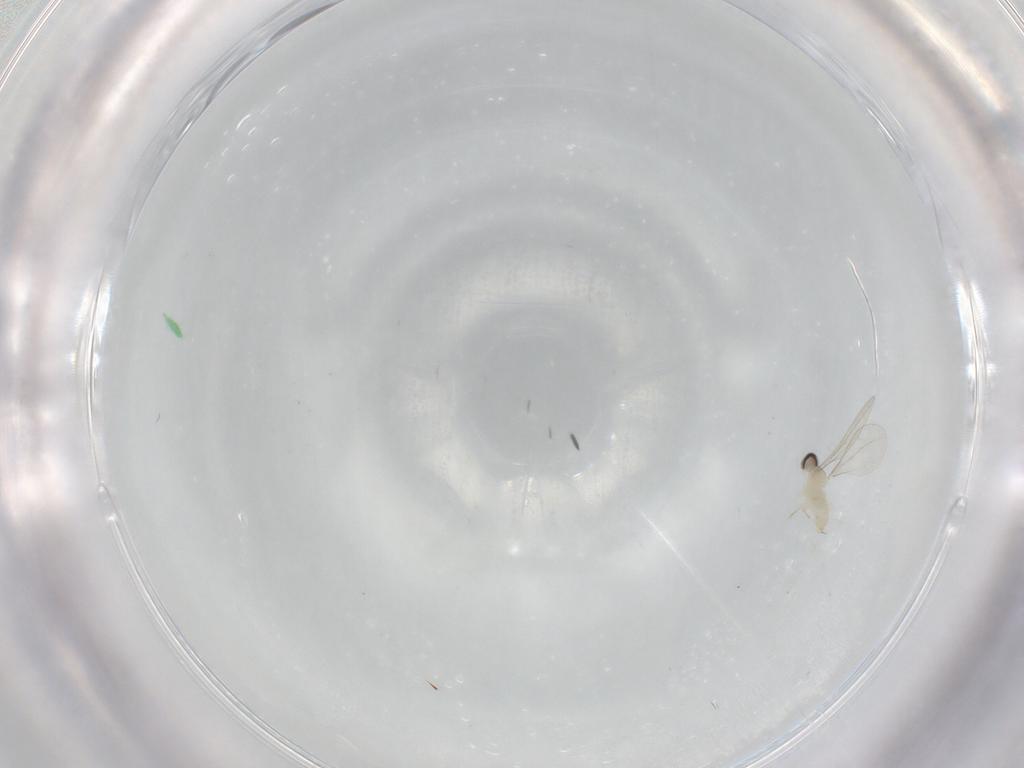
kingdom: Animalia
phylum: Arthropoda
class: Insecta
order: Diptera
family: Cecidomyiidae
